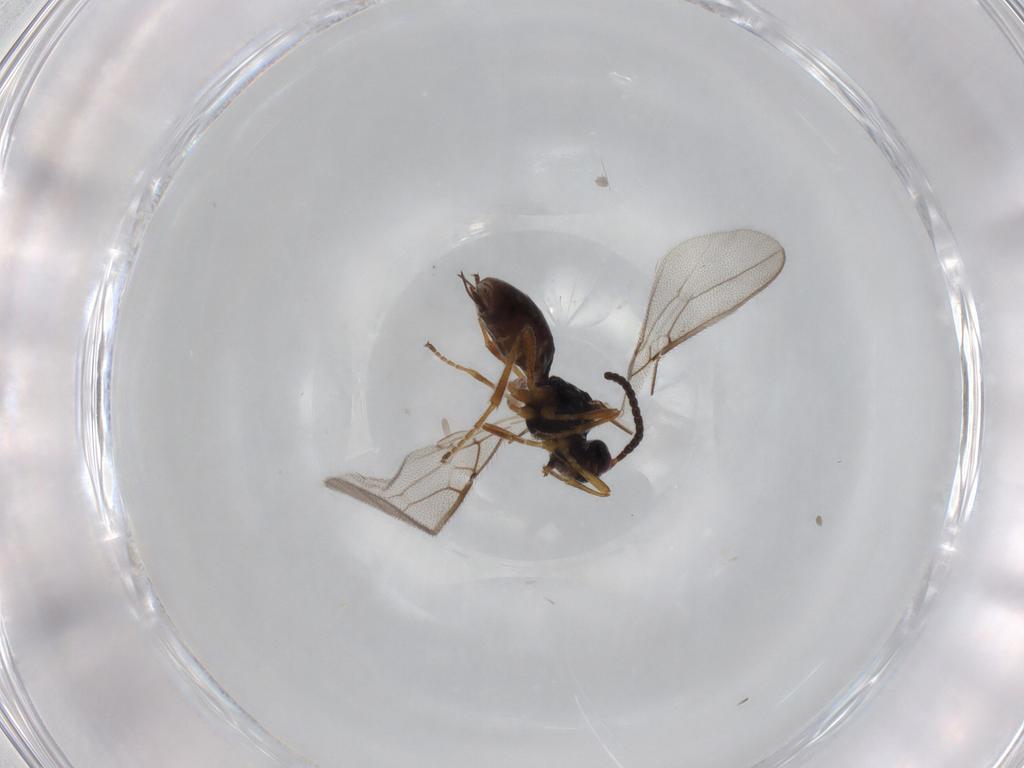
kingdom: Animalia
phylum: Arthropoda
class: Insecta
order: Hymenoptera
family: Braconidae
